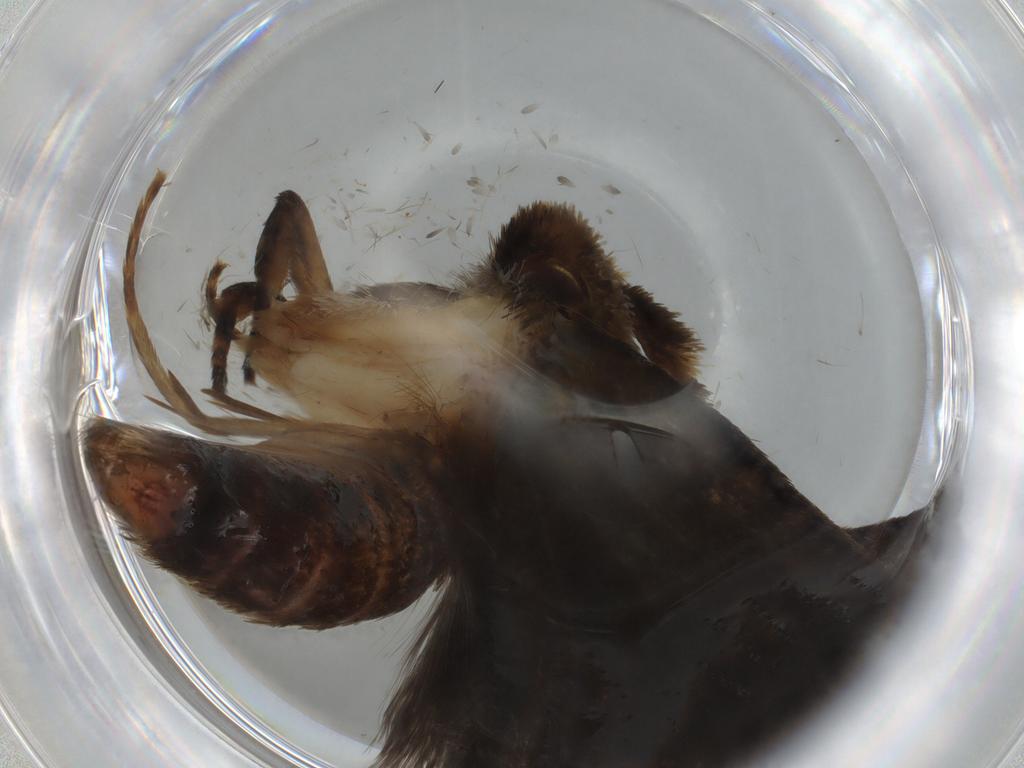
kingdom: Animalia
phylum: Arthropoda
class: Insecta
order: Lepidoptera
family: Tineidae
